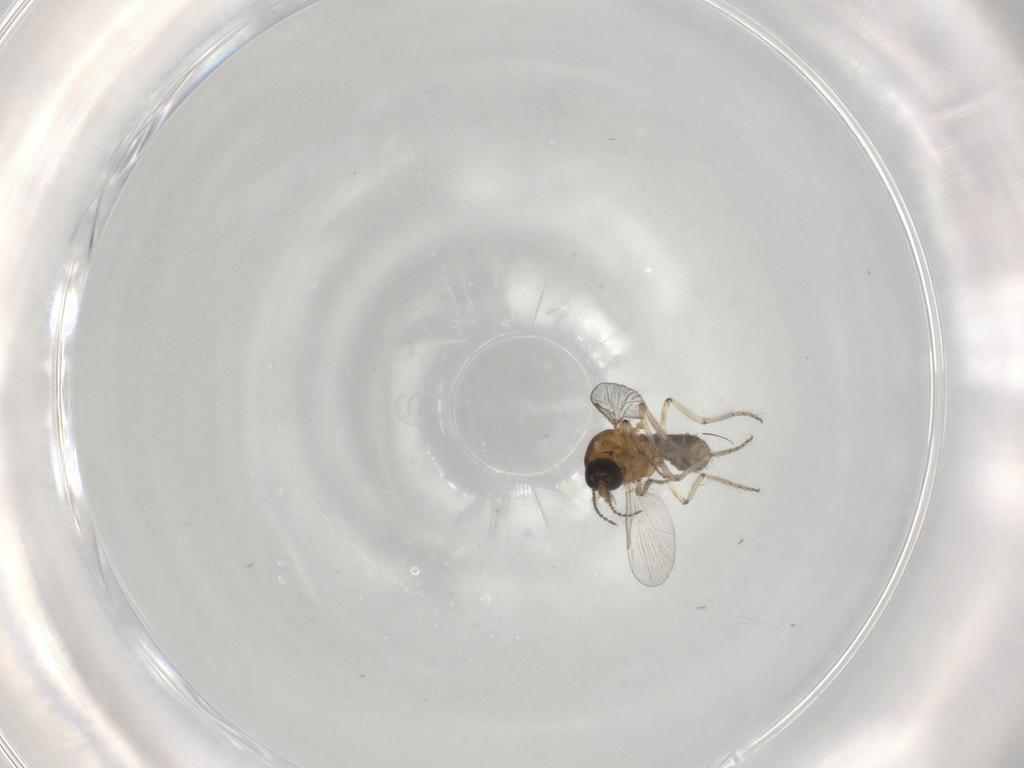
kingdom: Animalia
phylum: Arthropoda
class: Insecta
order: Diptera
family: Ceratopogonidae
